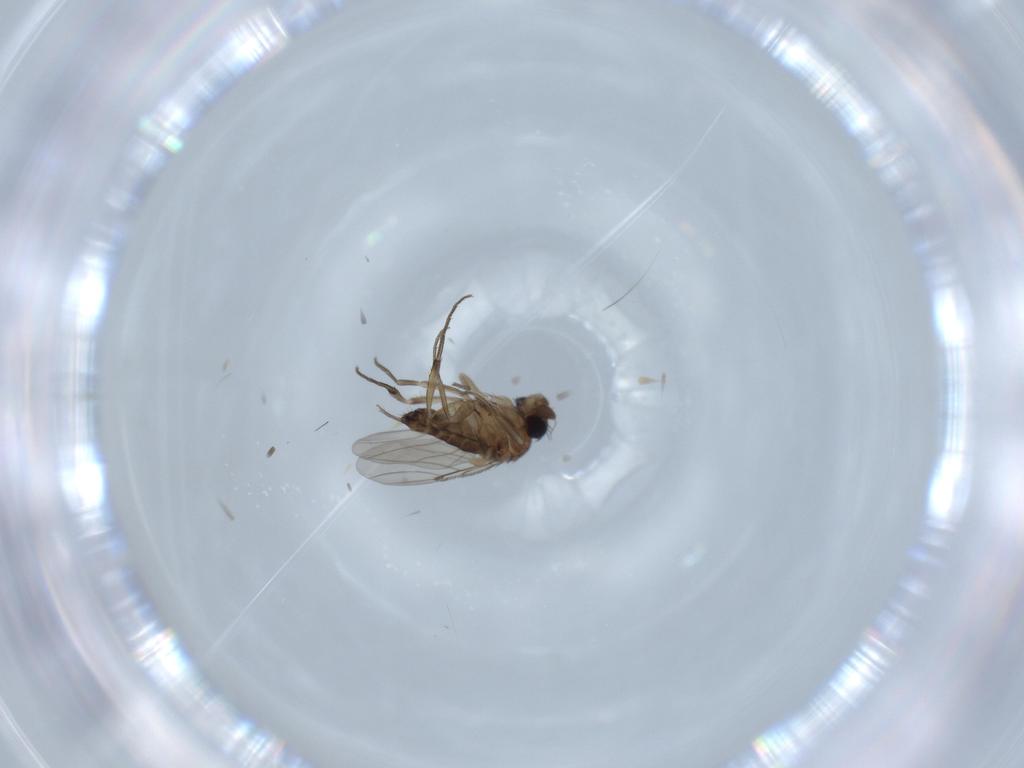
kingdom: Animalia
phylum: Arthropoda
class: Insecta
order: Diptera
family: Phoridae
